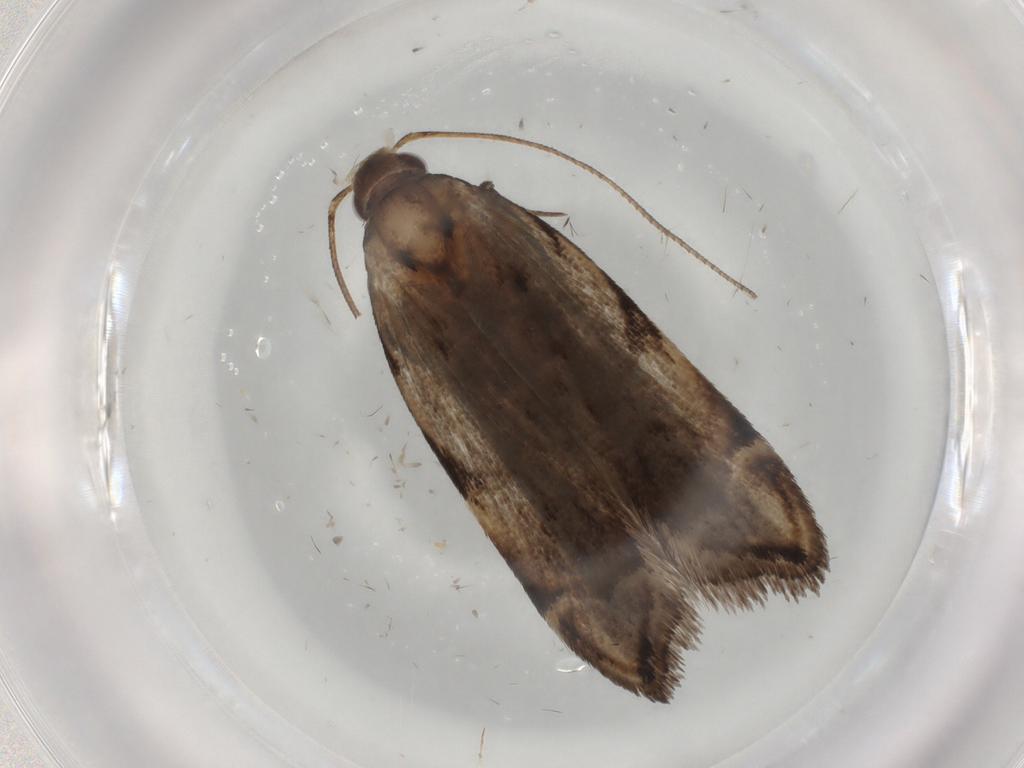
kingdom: Animalia
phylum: Arthropoda
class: Insecta
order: Lepidoptera
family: Gelechiidae
